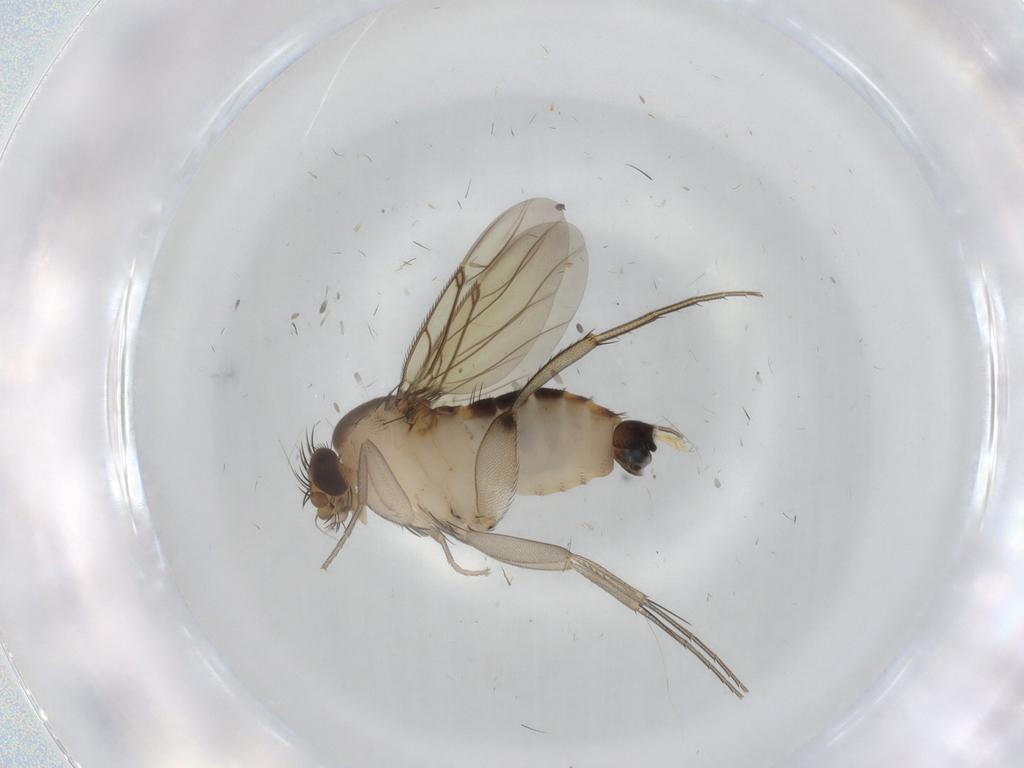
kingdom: Animalia
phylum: Arthropoda
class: Insecta
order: Diptera
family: Phoridae
